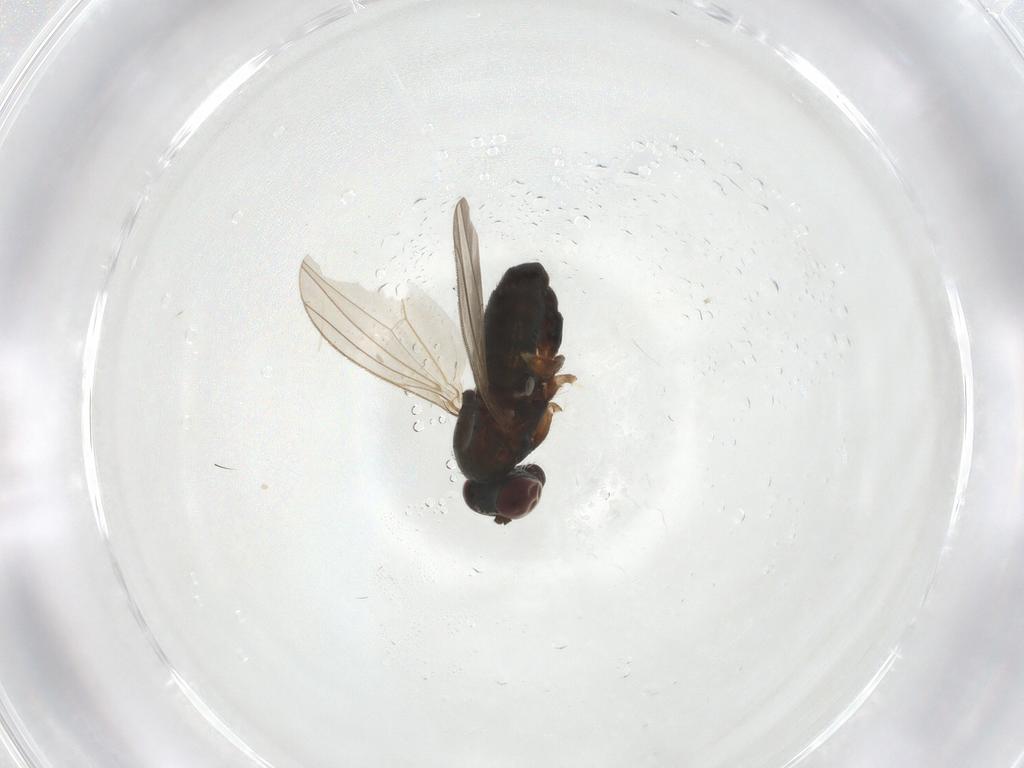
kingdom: Animalia
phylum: Arthropoda
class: Insecta
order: Diptera
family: Dolichopodidae
